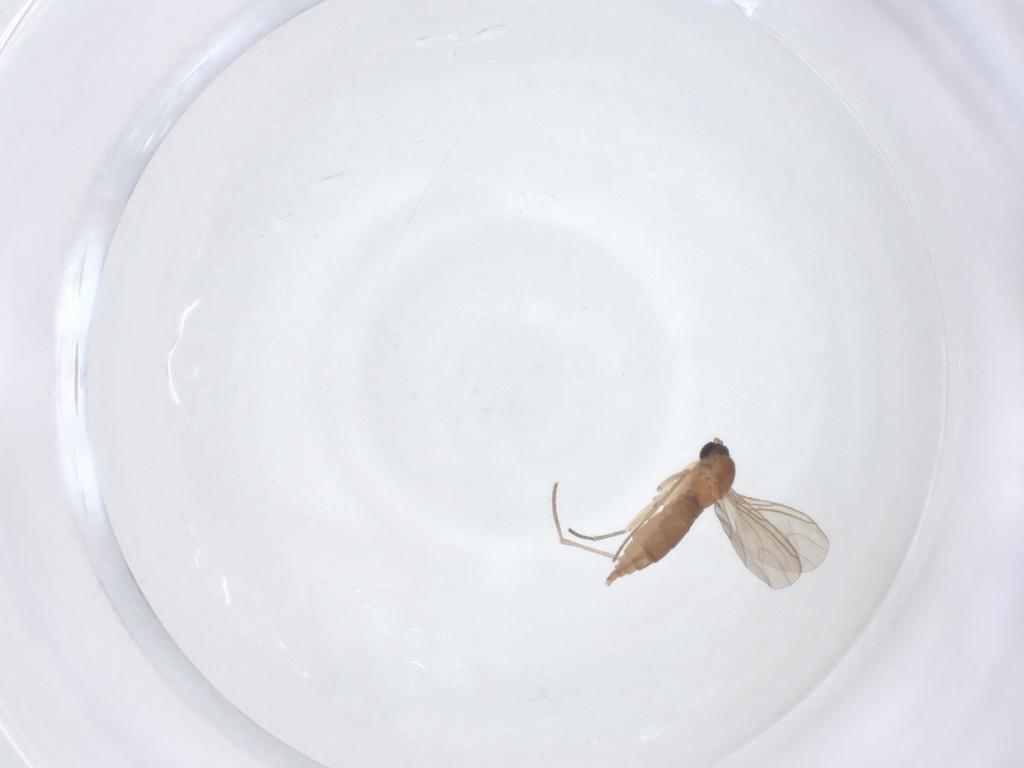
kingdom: Animalia
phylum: Arthropoda
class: Insecta
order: Diptera
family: Sciaridae
